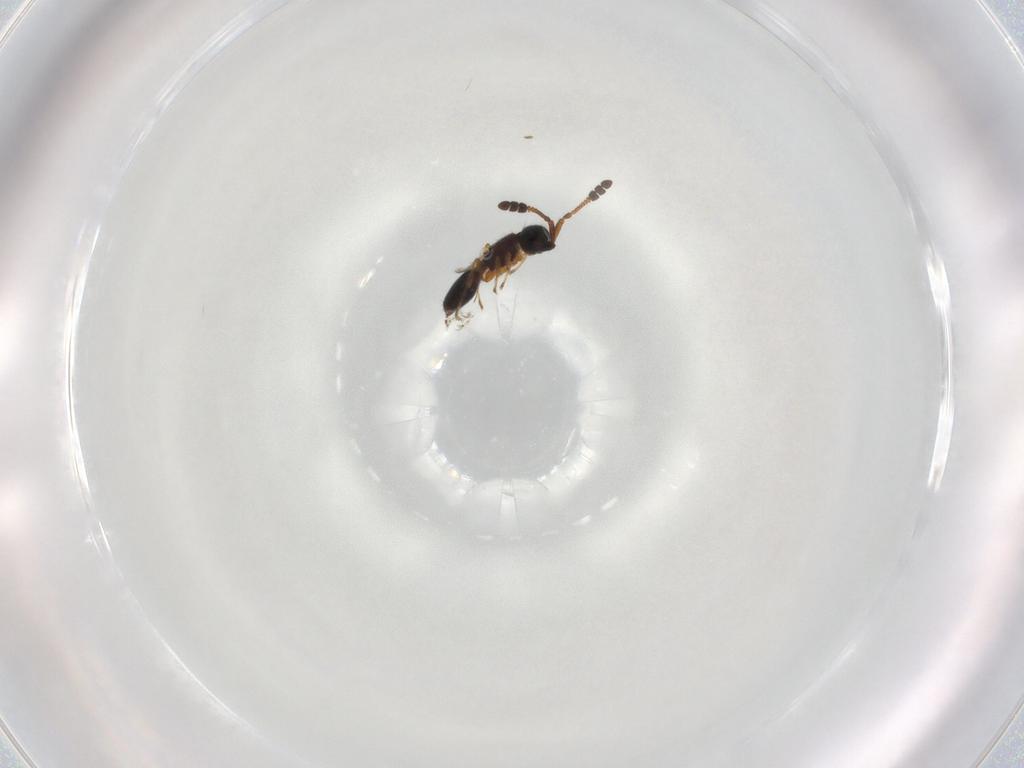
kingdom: Animalia
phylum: Arthropoda
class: Insecta
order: Hymenoptera
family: Diapriidae
